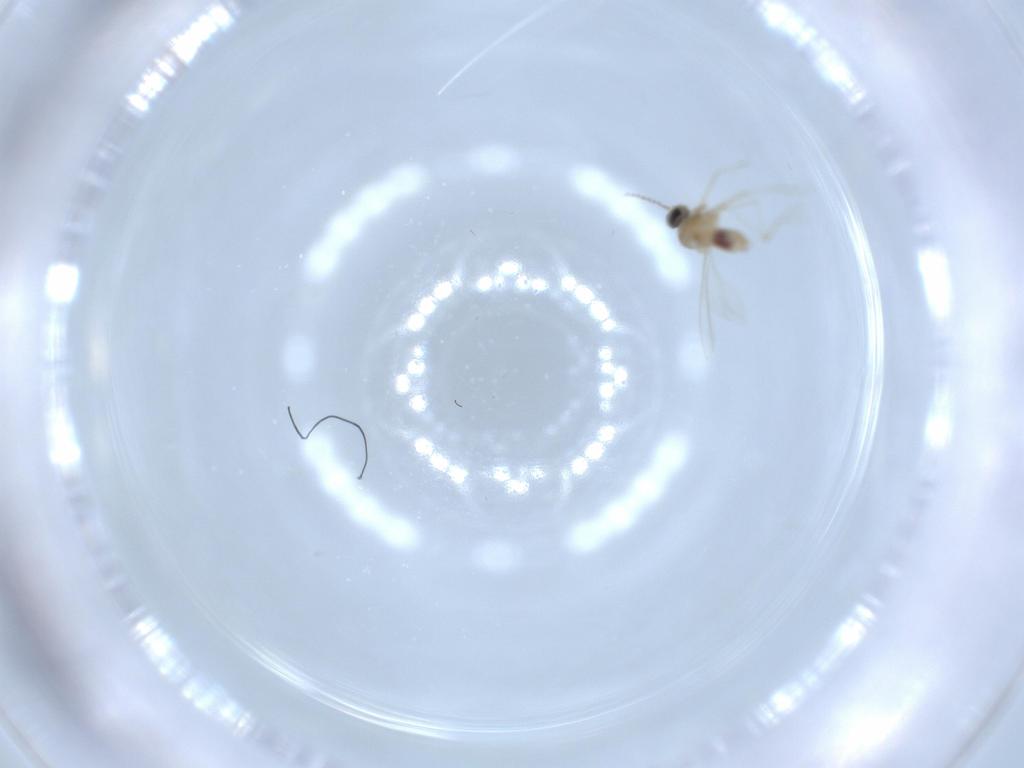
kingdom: Animalia
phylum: Arthropoda
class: Insecta
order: Diptera
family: Cecidomyiidae
